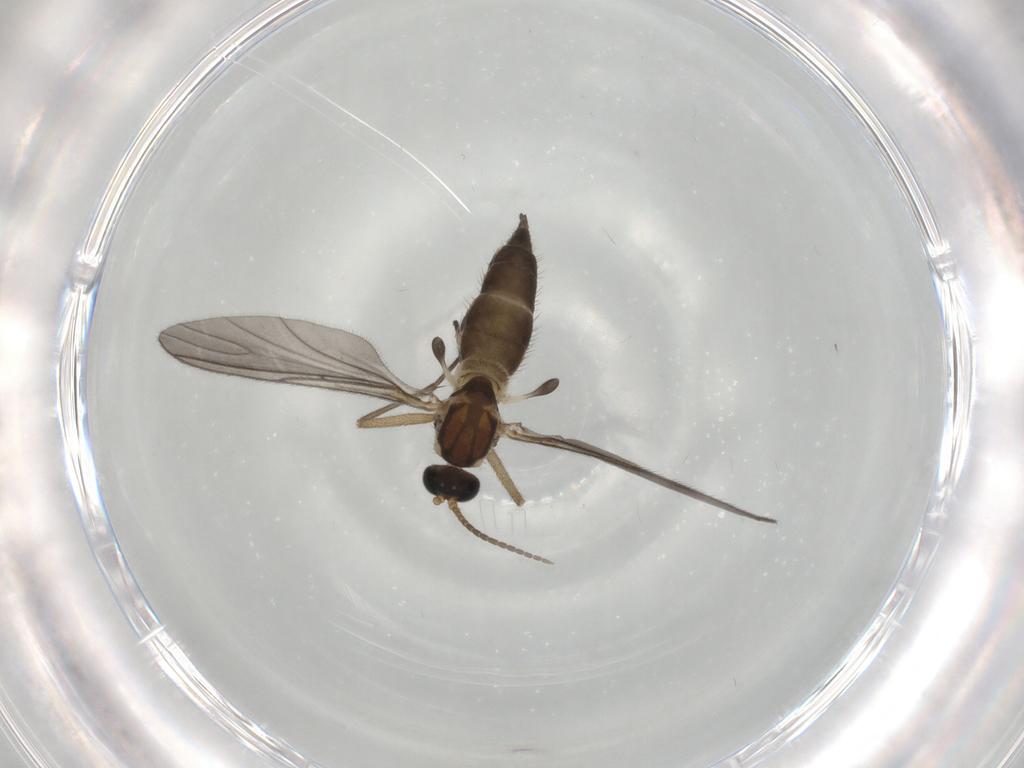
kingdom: Animalia
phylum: Arthropoda
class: Insecta
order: Diptera
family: Sciaridae
